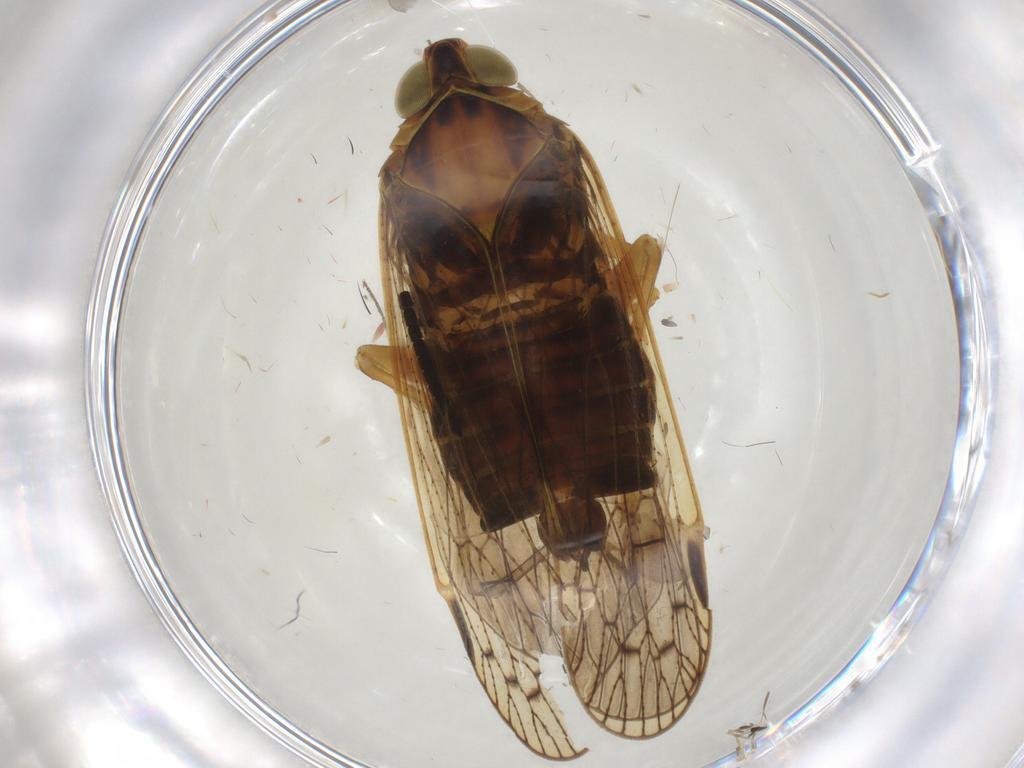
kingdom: Animalia
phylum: Arthropoda
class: Insecta
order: Hemiptera
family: Cixiidae
